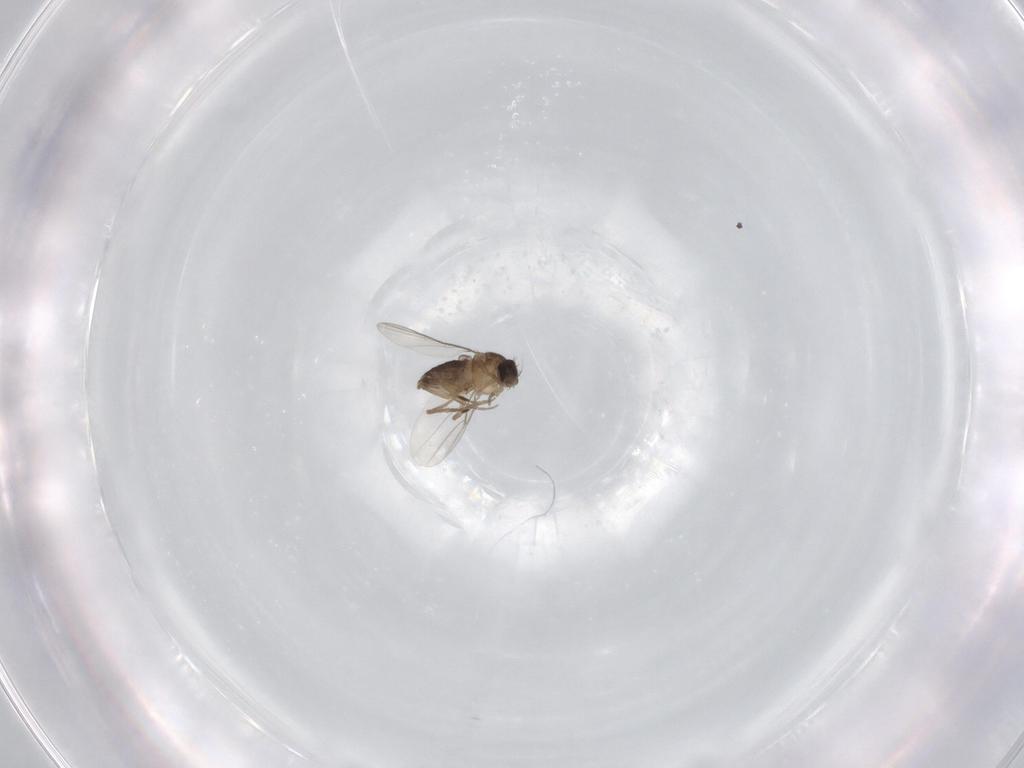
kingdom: Animalia
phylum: Arthropoda
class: Insecta
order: Diptera
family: Phoridae
